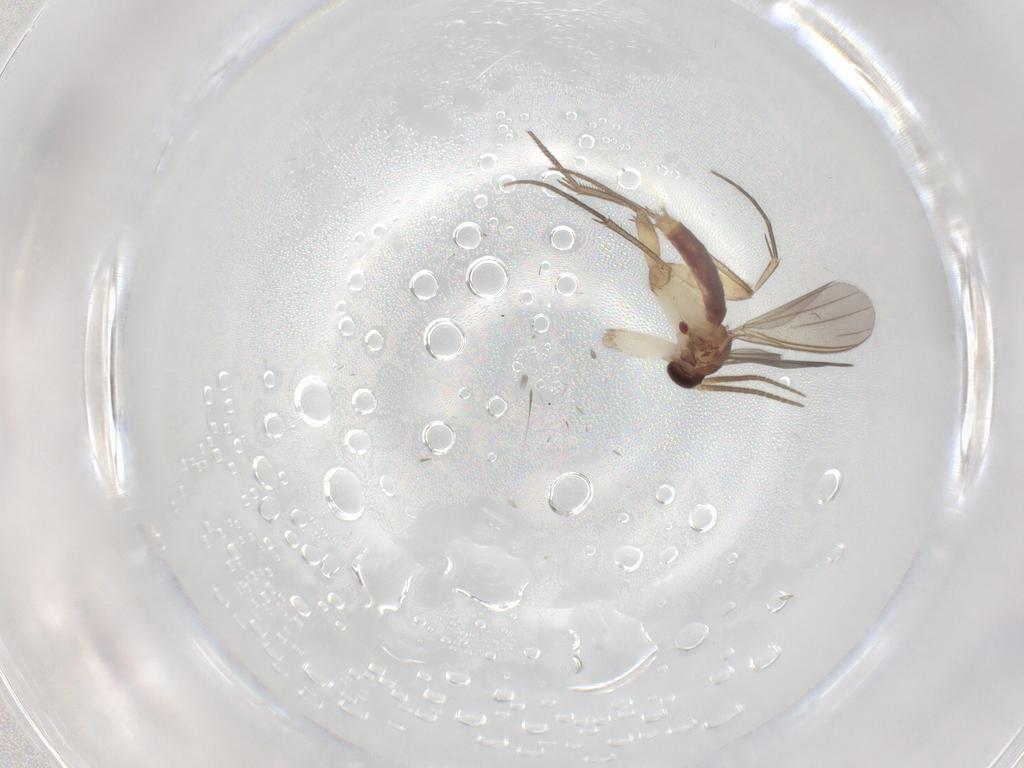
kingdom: Animalia
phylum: Arthropoda
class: Insecta
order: Diptera
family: Mycetophilidae
